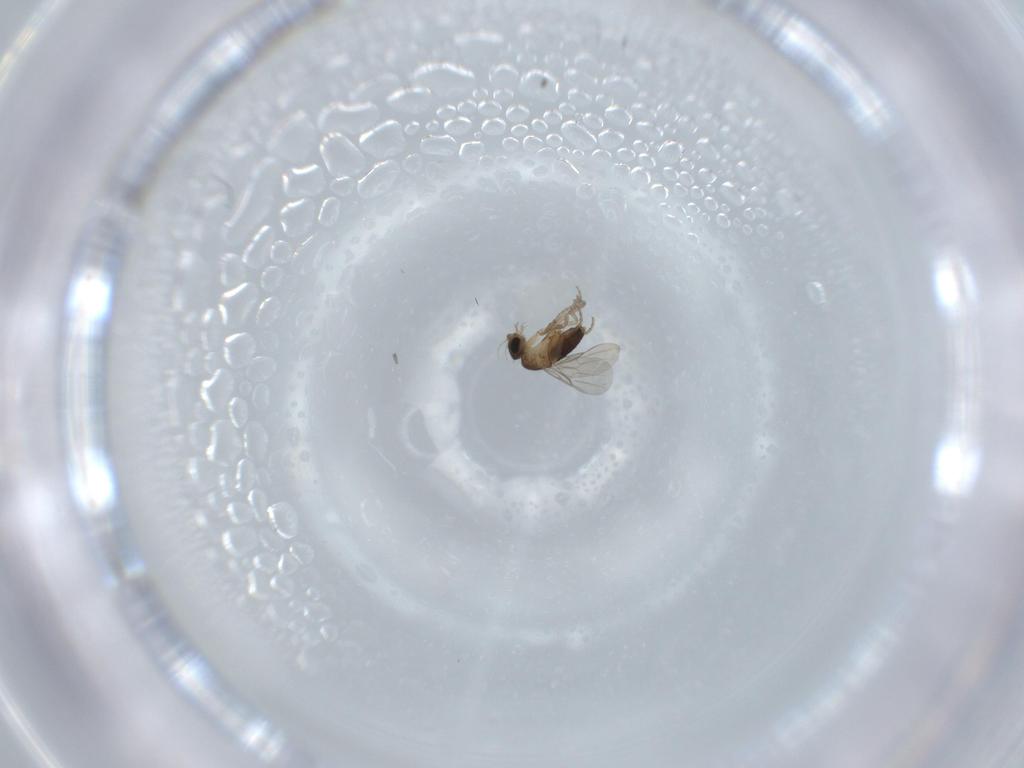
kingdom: Animalia
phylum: Arthropoda
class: Insecta
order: Diptera
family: Phoridae
